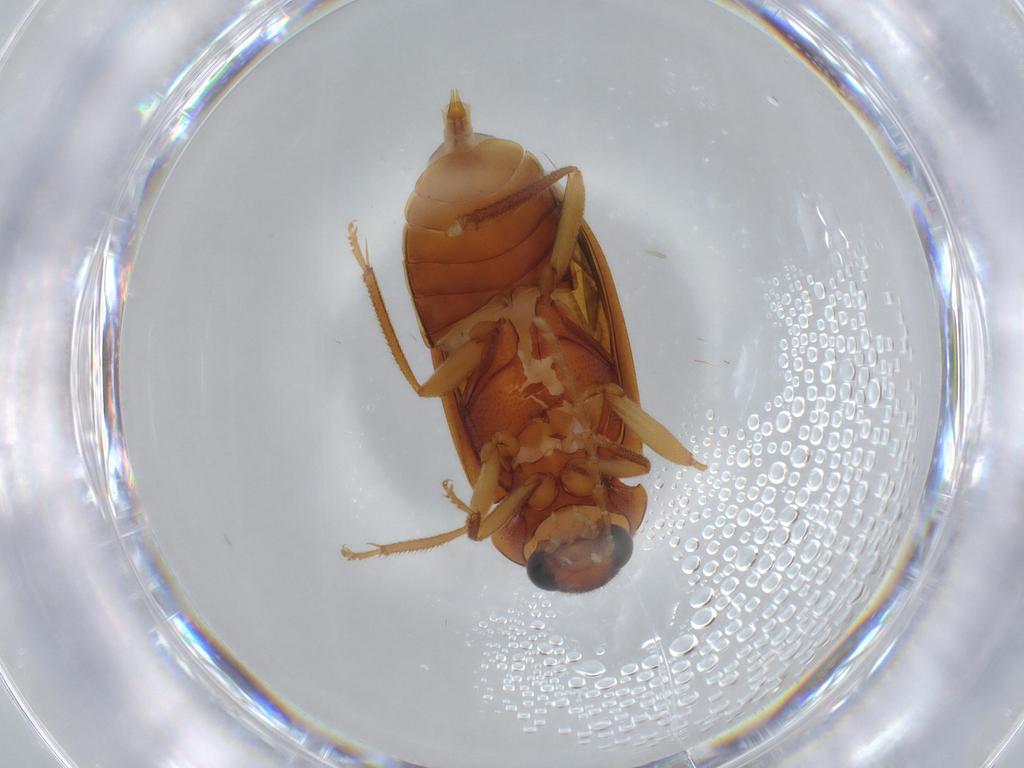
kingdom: Animalia
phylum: Arthropoda
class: Insecta
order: Coleoptera
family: Ptilodactylidae
